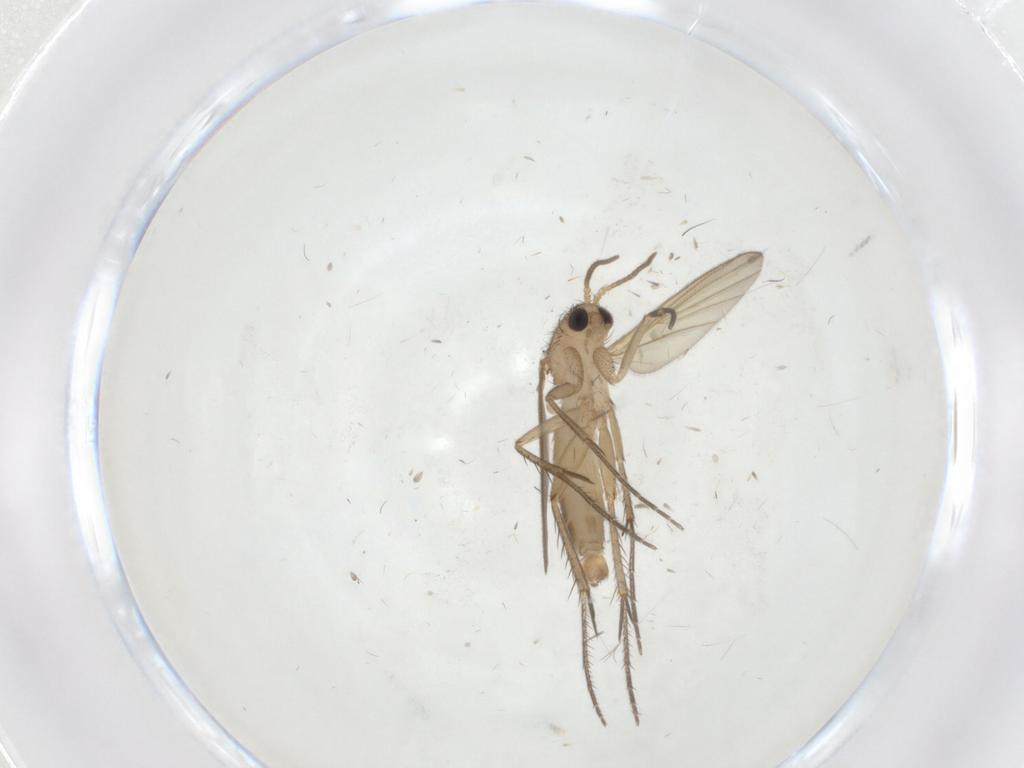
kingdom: Animalia
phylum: Arthropoda
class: Insecta
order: Diptera
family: Mycetophilidae
